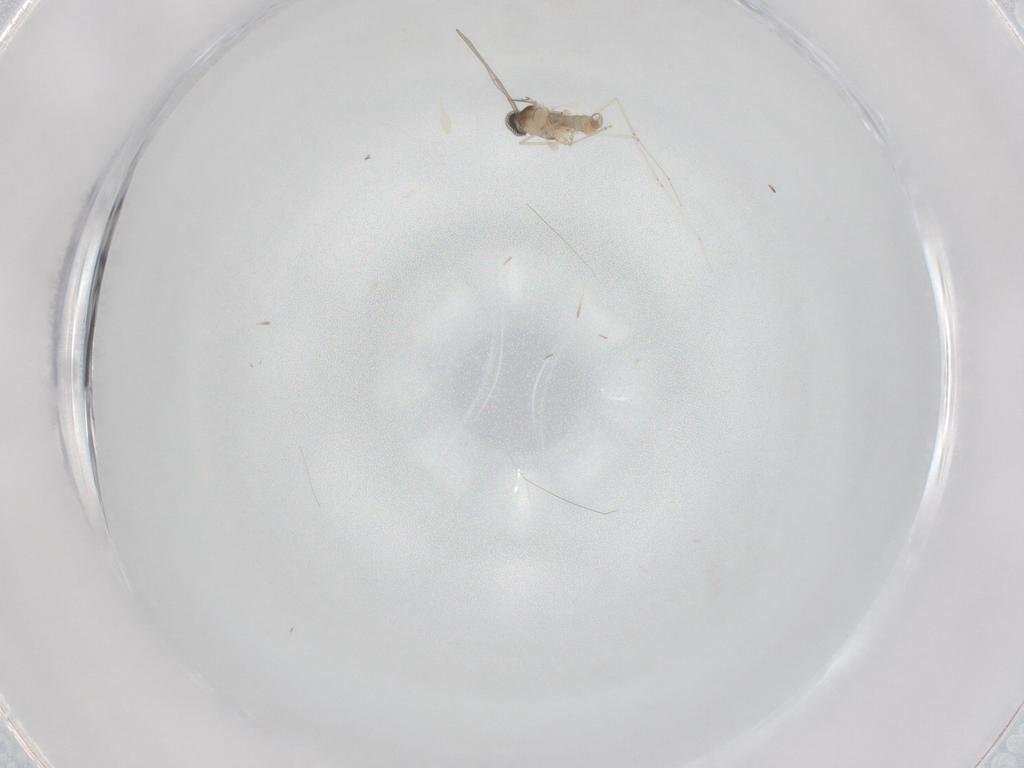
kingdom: Animalia
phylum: Arthropoda
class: Insecta
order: Diptera
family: Cecidomyiidae
